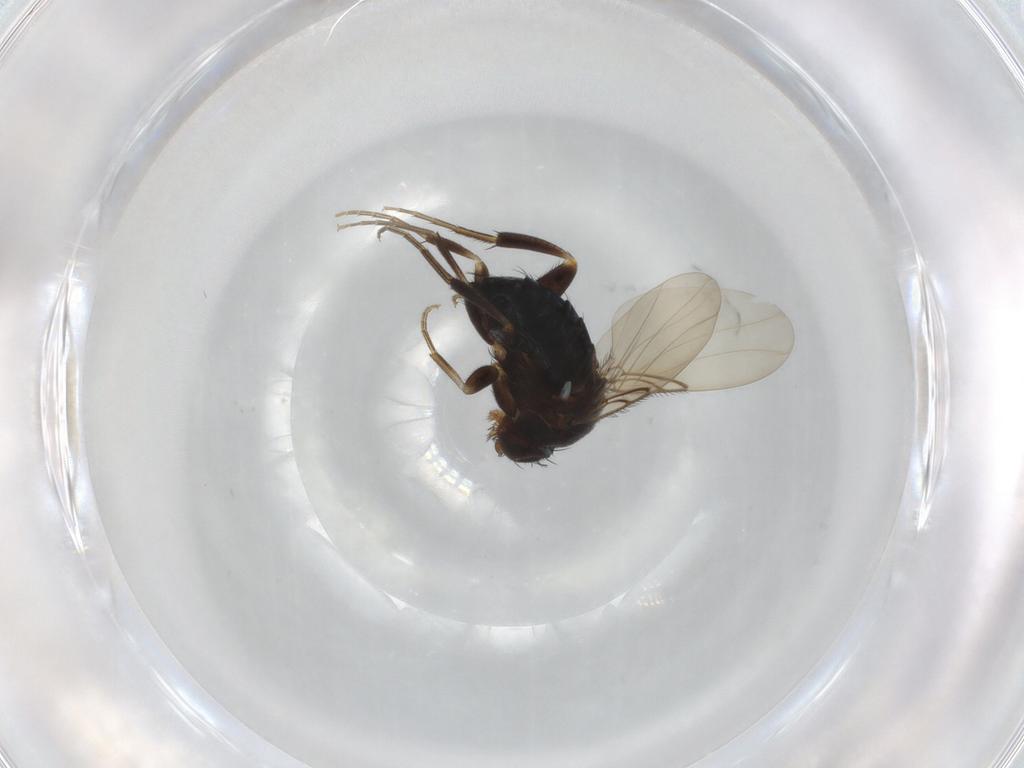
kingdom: Animalia
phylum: Arthropoda
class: Insecta
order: Diptera
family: Phoridae
